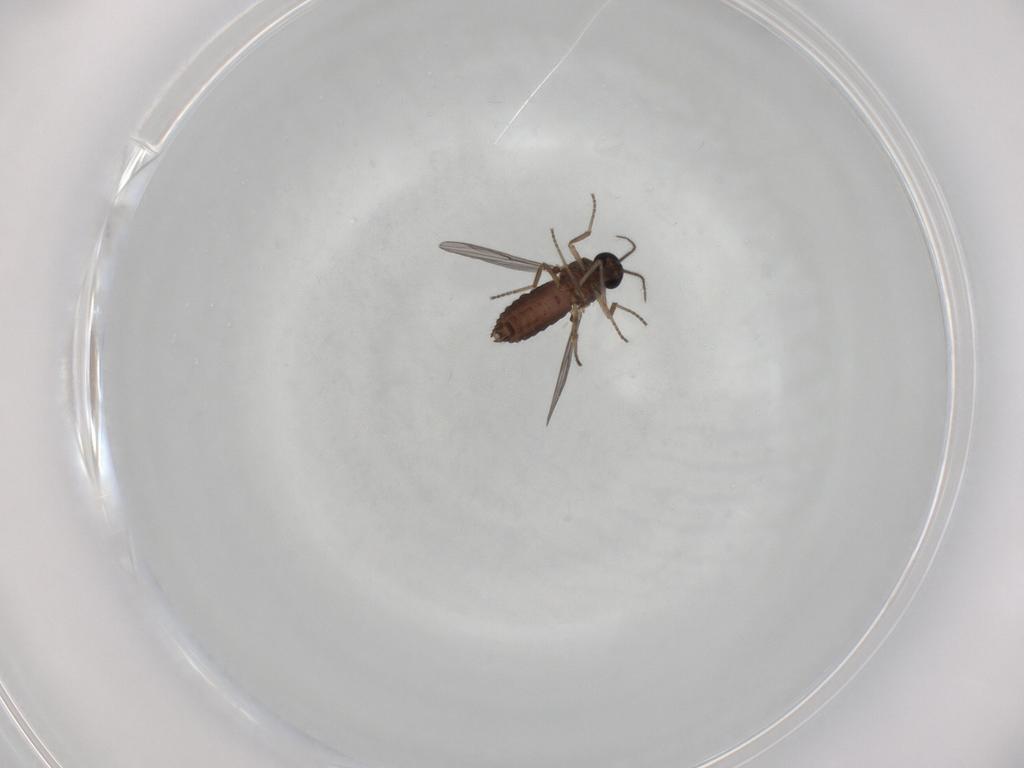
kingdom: Animalia
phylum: Arthropoda
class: Insecta
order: Diptera
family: Ceratopogonidae
